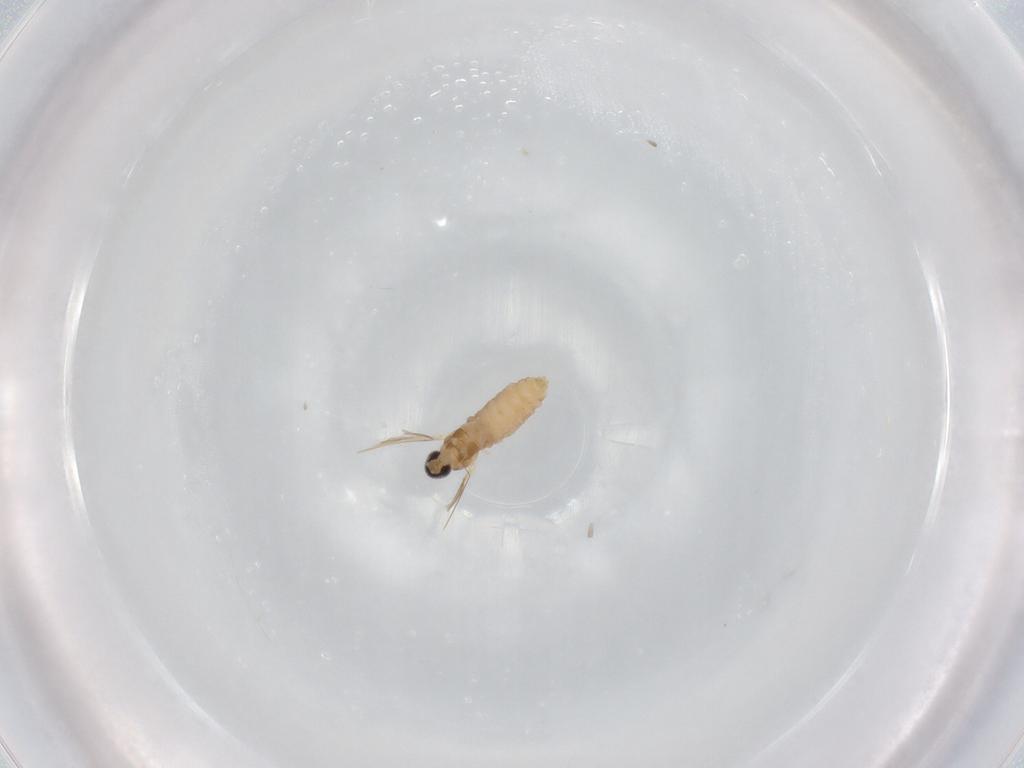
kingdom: Animalia
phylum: Arthropoda
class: Insecta
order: Diptera
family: Cecidomyiidae
